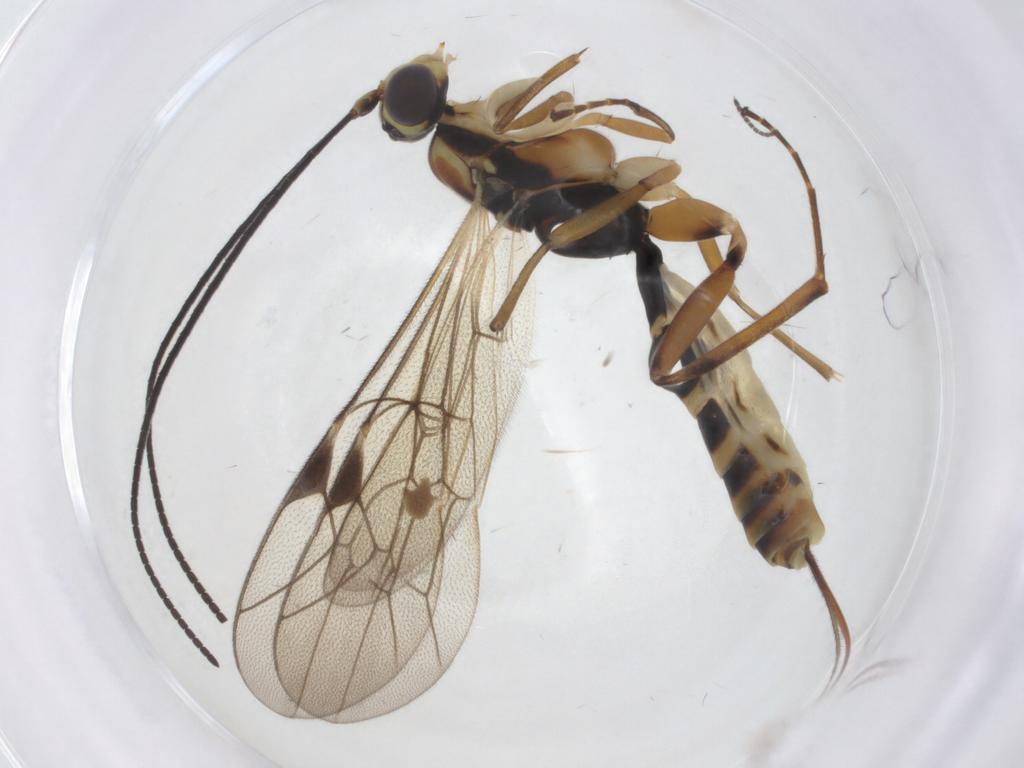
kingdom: Animalia
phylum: Arthropoda
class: Insecta
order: Hymenoptera
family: Ichneumonidae
